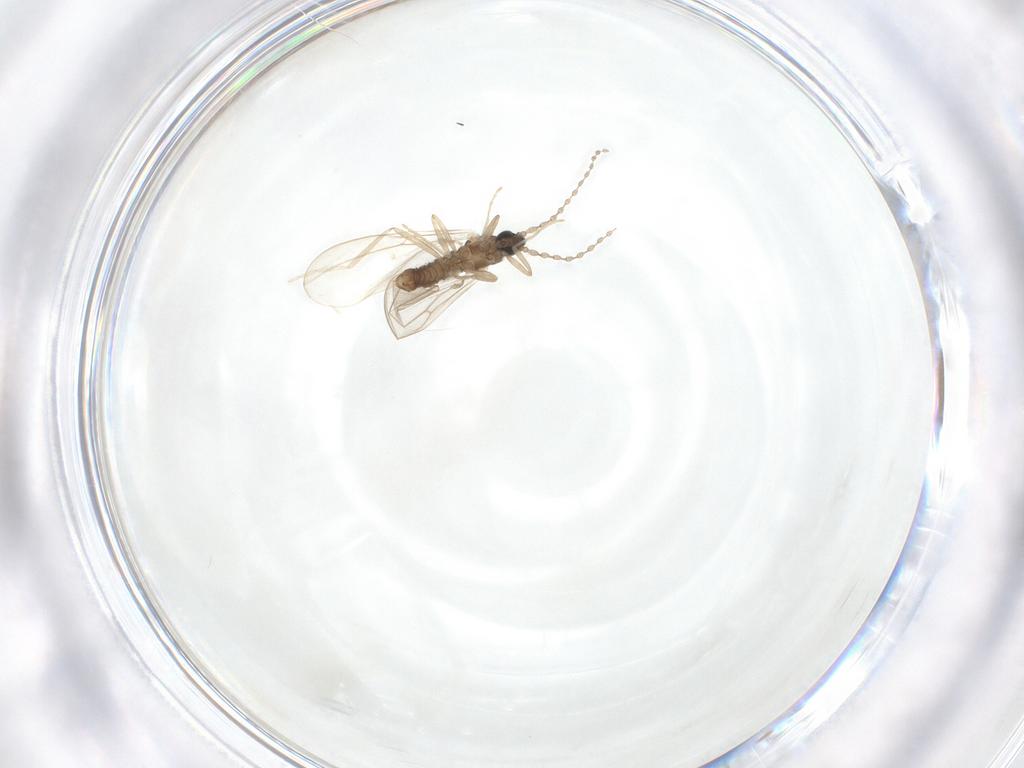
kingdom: Animalia
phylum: Arthropoda
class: Insecta
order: Diptera
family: Cecidomyiidae
